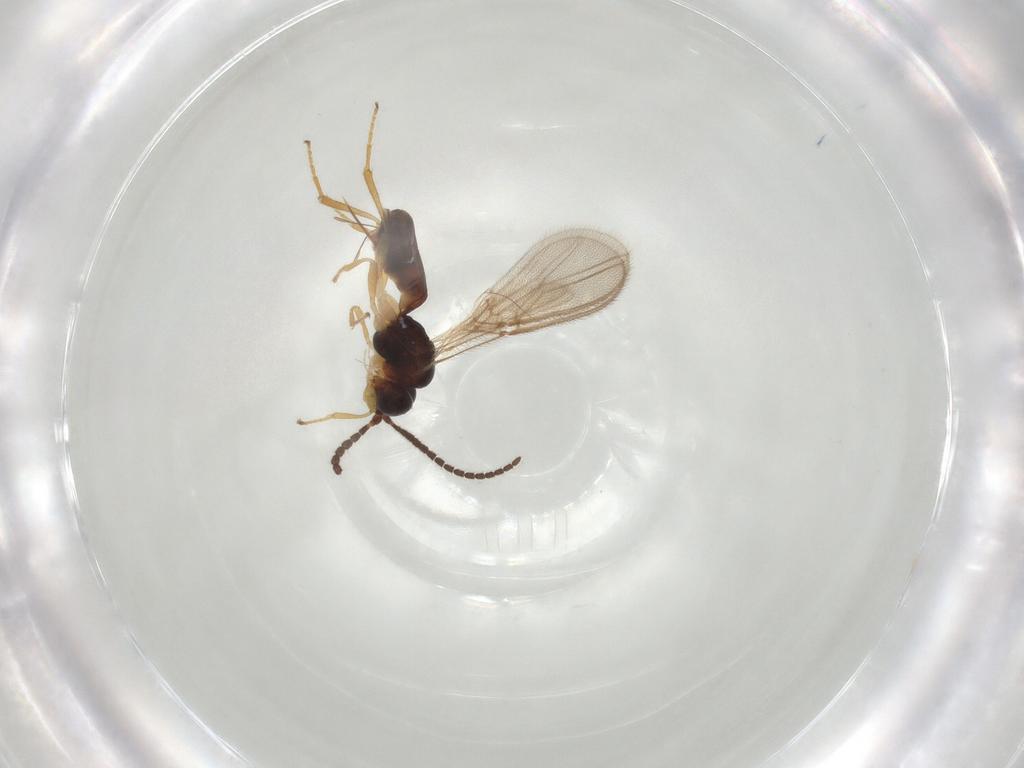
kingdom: Animalia
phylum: Arthropoda
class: Insecta
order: Hymenoptera
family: Braconidae
